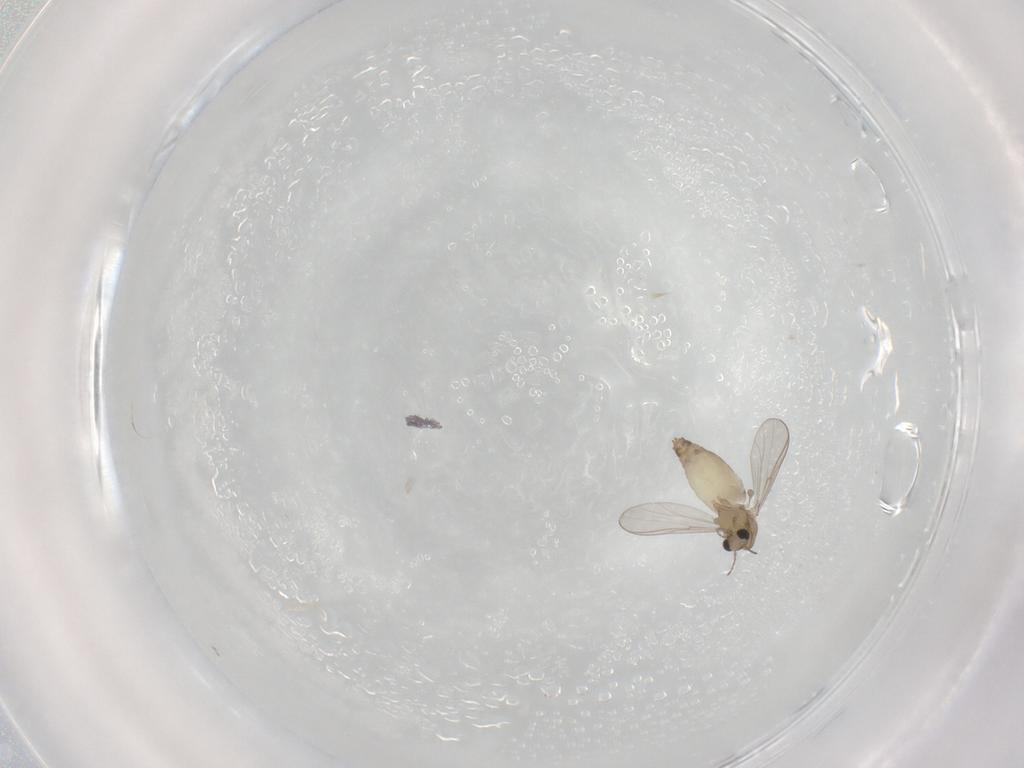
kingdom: Animalia
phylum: Arthropoda
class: Insecta
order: Diptera
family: Chironomidae
